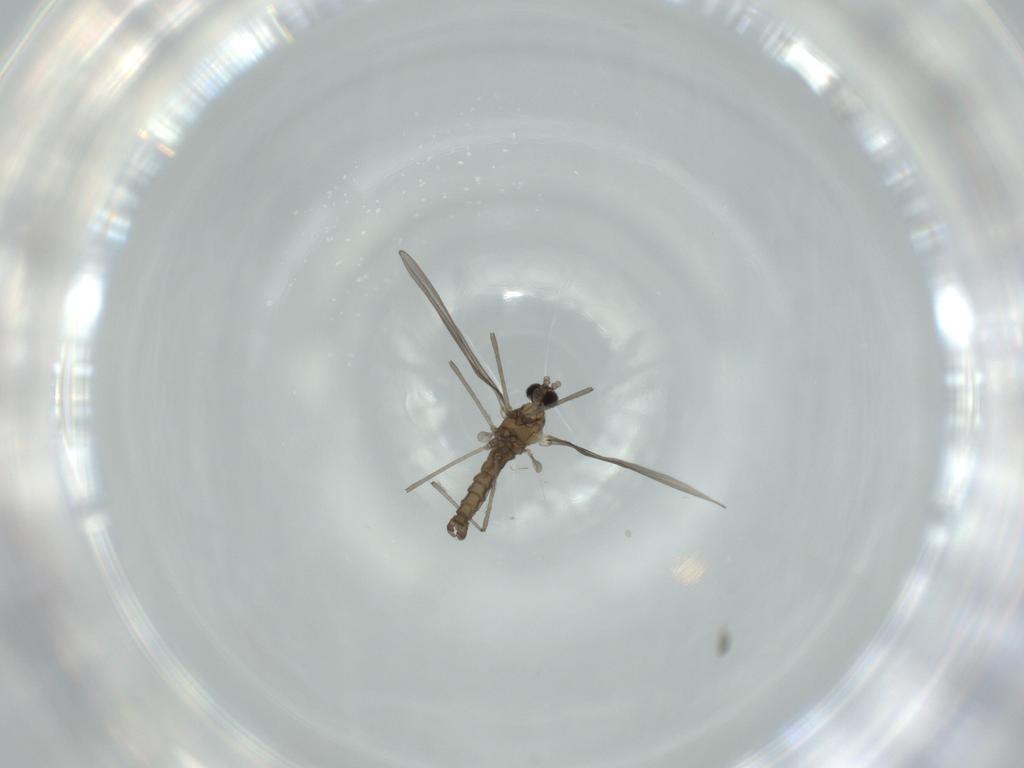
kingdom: Animalia
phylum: Arthropoda
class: Insecta
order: Diptera
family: Cecidomyiidae
